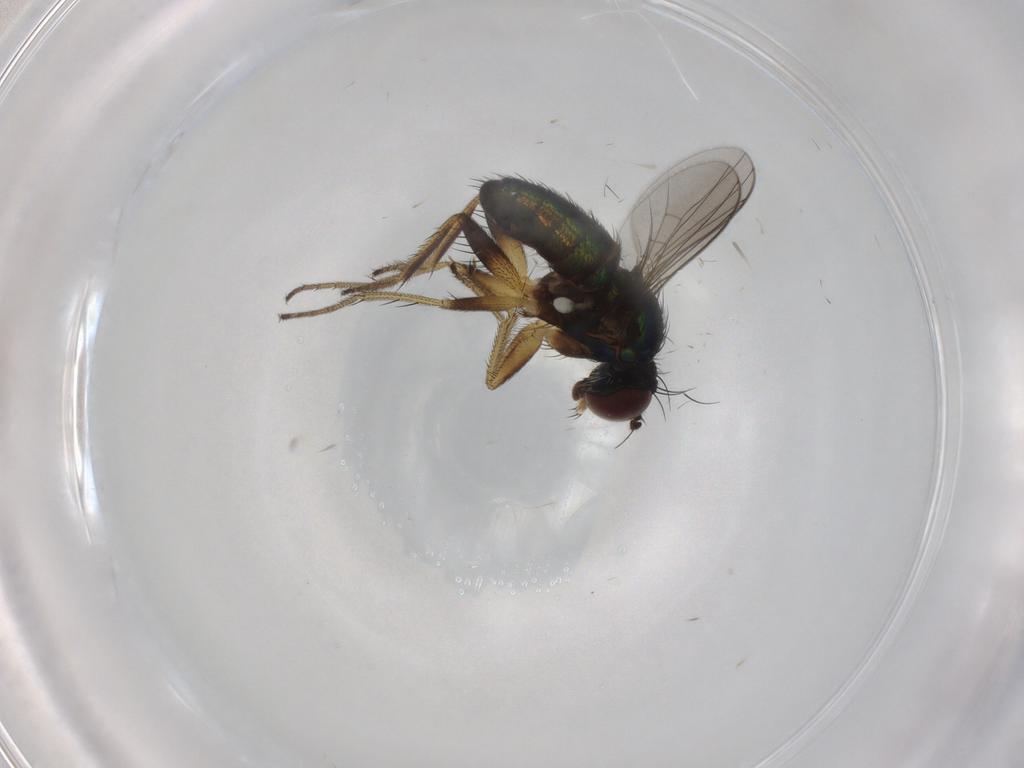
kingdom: Animalia
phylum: Arthropoda
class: Insecta
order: Diptera
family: Dolichopodidae
